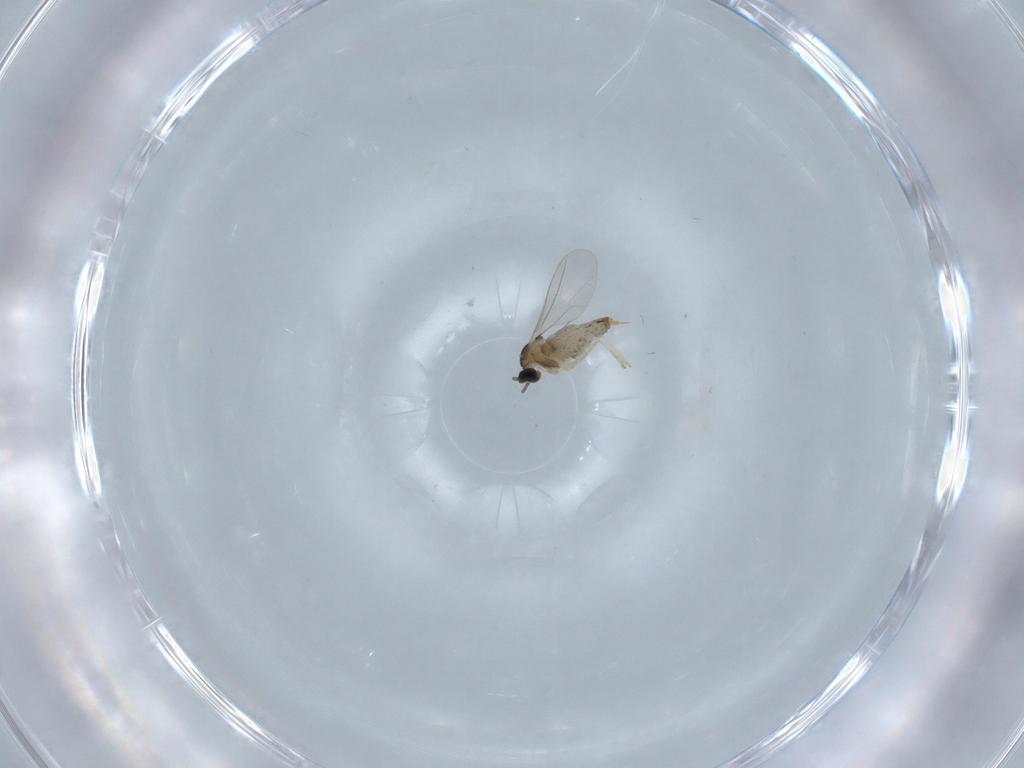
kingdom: Animalia
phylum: Arthropoda
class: Insecta
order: Diptera
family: Cecidomyiidae
